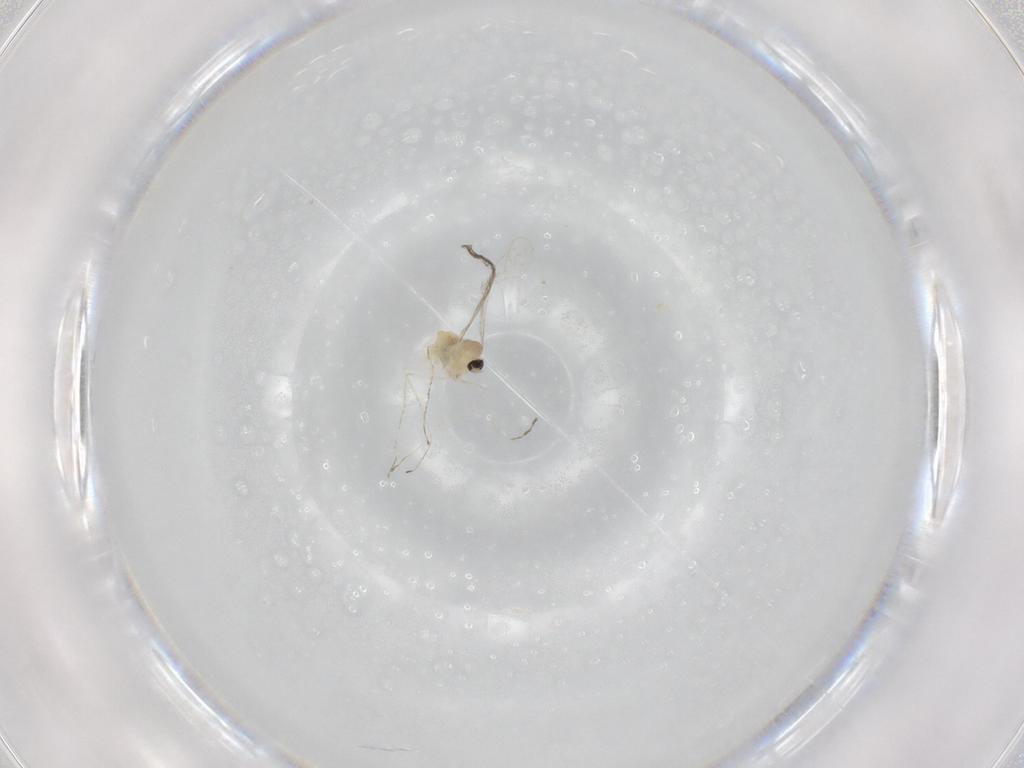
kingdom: Animalia
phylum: Arthropoda
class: Insecta
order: Diptera
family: Cecidomyiidae
